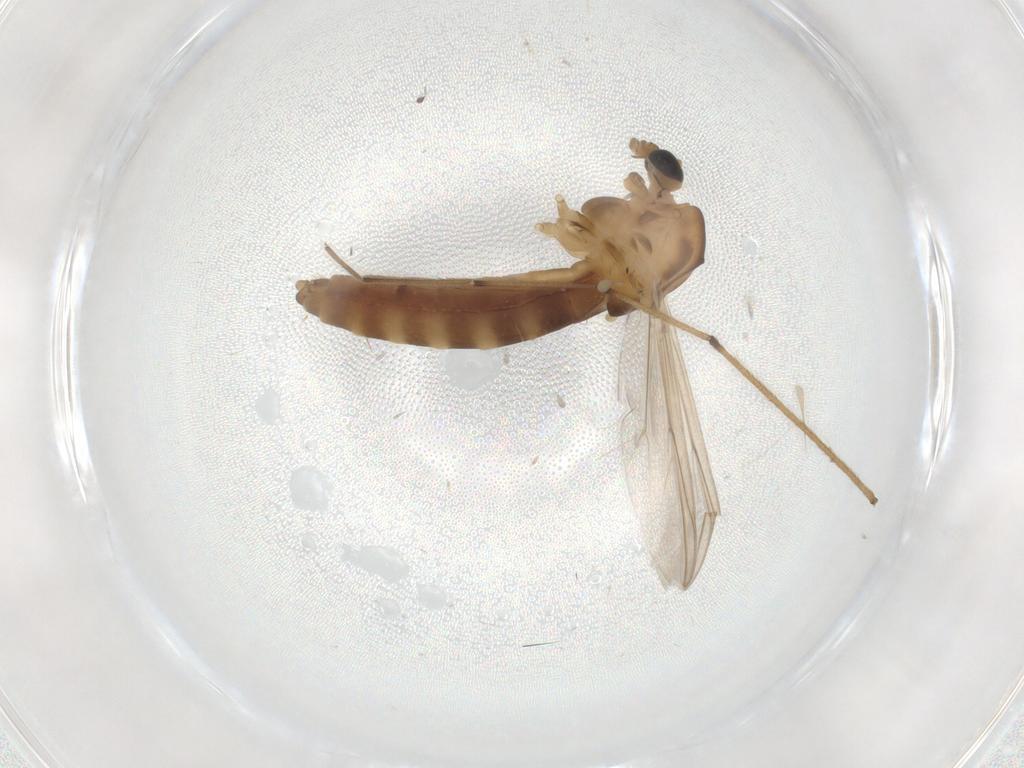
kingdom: Animalia
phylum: Arthropoda
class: Insecta
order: Diptera
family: Chironomidae
